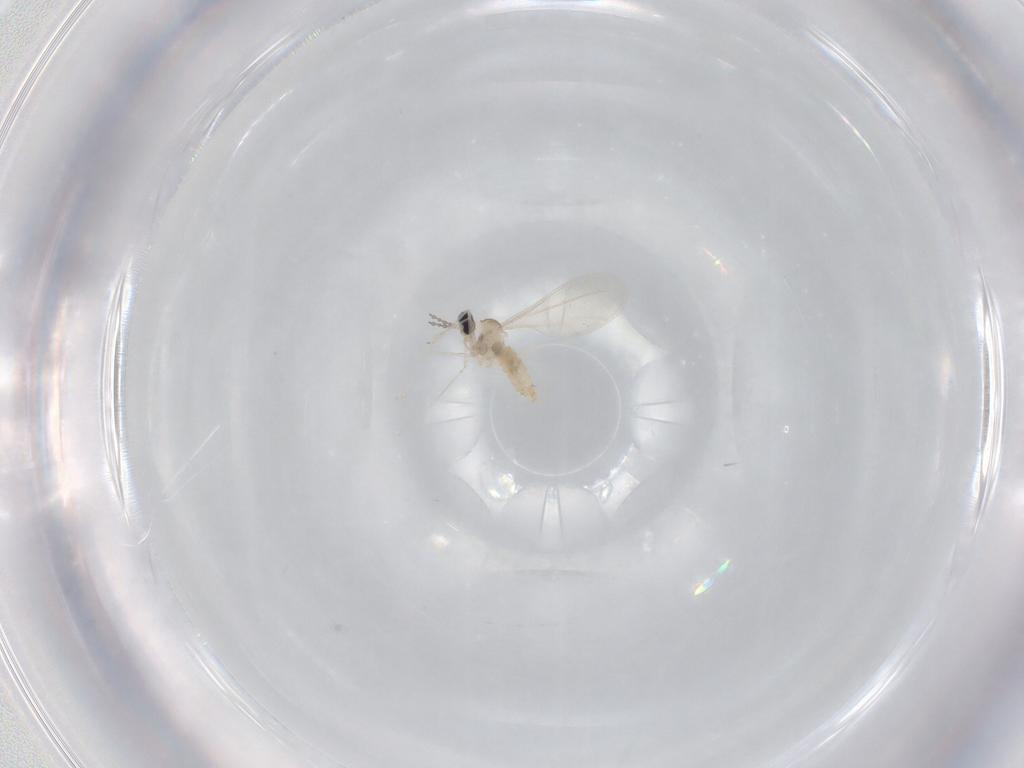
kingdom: Animalia
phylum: Arthropoda
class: Insecta
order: Diptera
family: Cecidomyiidae
